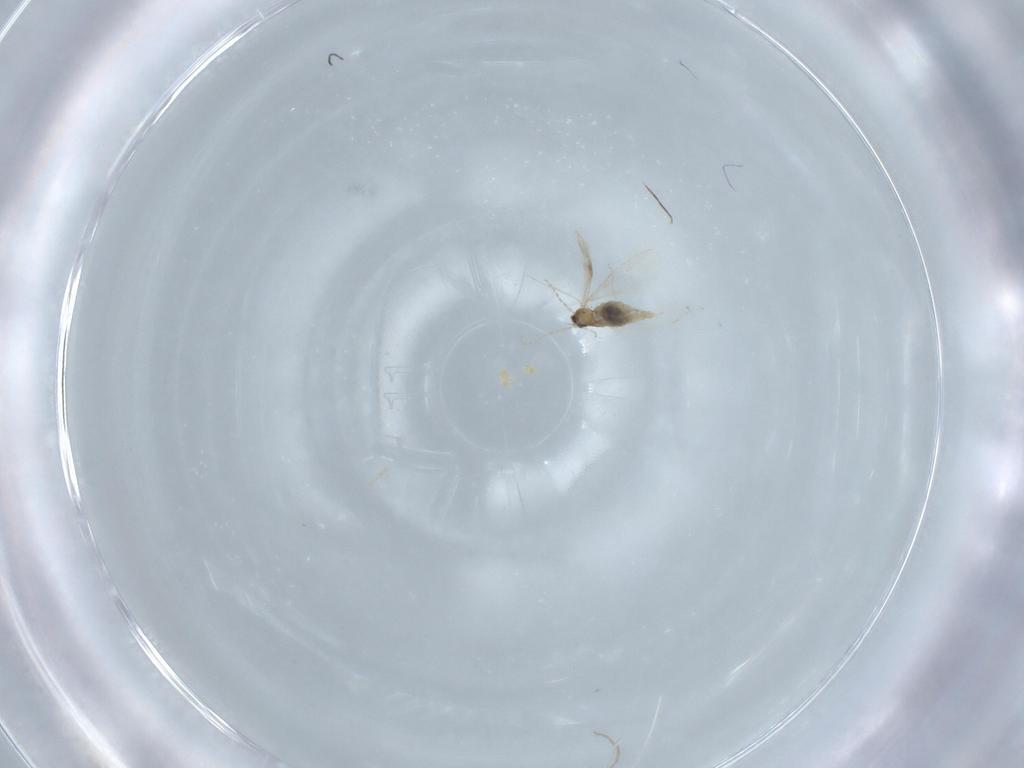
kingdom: Animalia
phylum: Arthropoda
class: Insecta
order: Diptera
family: Cecidomyiidae
